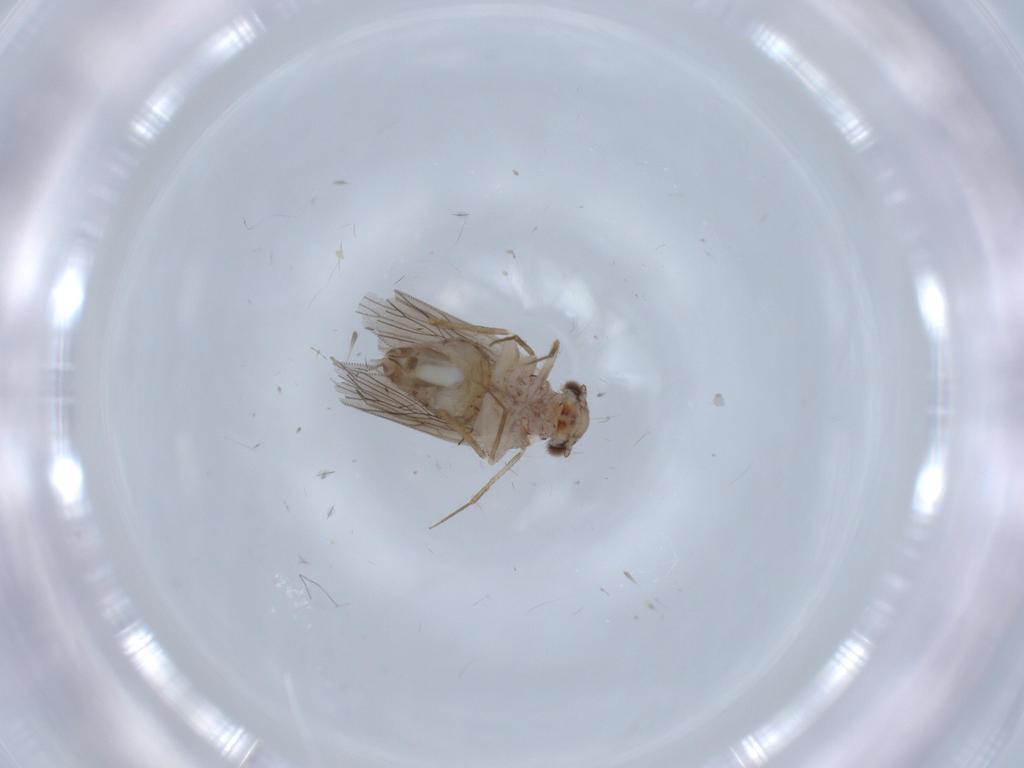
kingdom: Animalia
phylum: Arthropoda
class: Insecta
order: Psocodea
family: Lepidopsocidae
